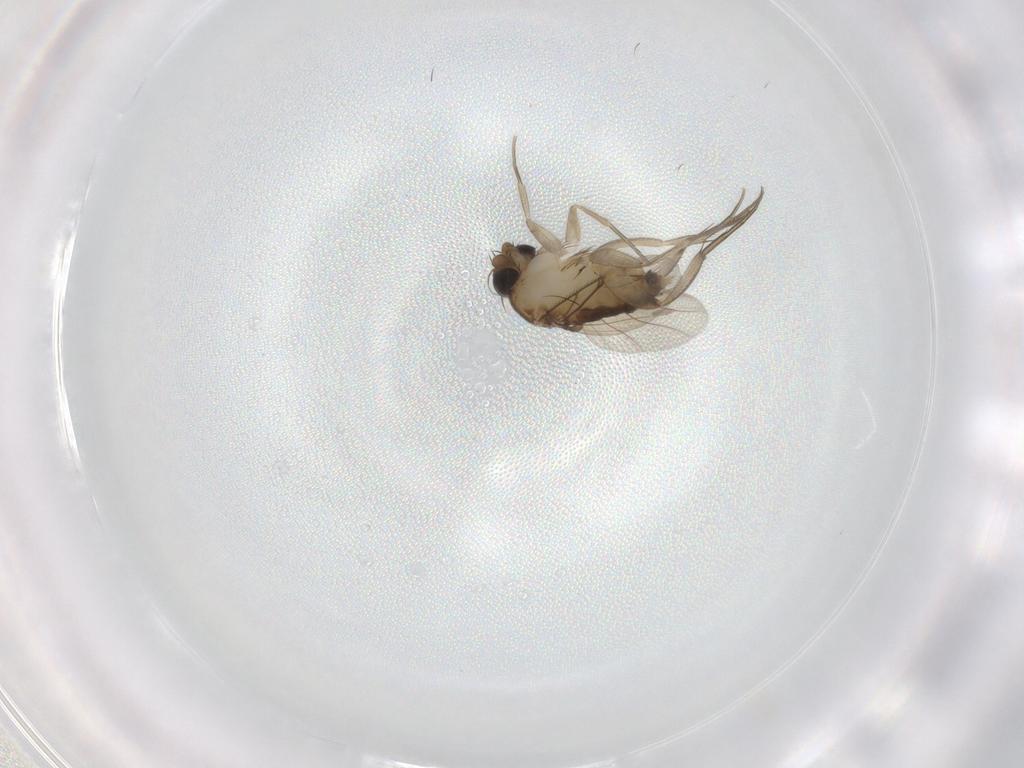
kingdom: Animalia
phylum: Arthropoda
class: Insecta
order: Diptera
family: Phoridae
